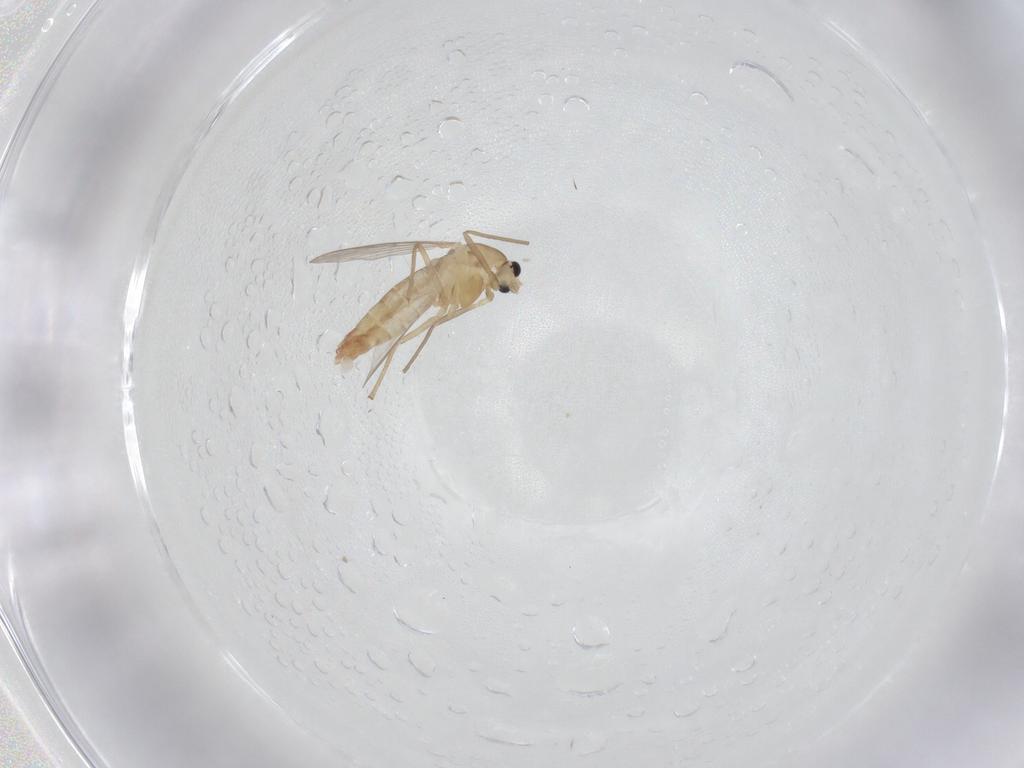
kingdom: Animalia
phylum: Arthropoda
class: Insecta
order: Diptera
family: Chironomidae
